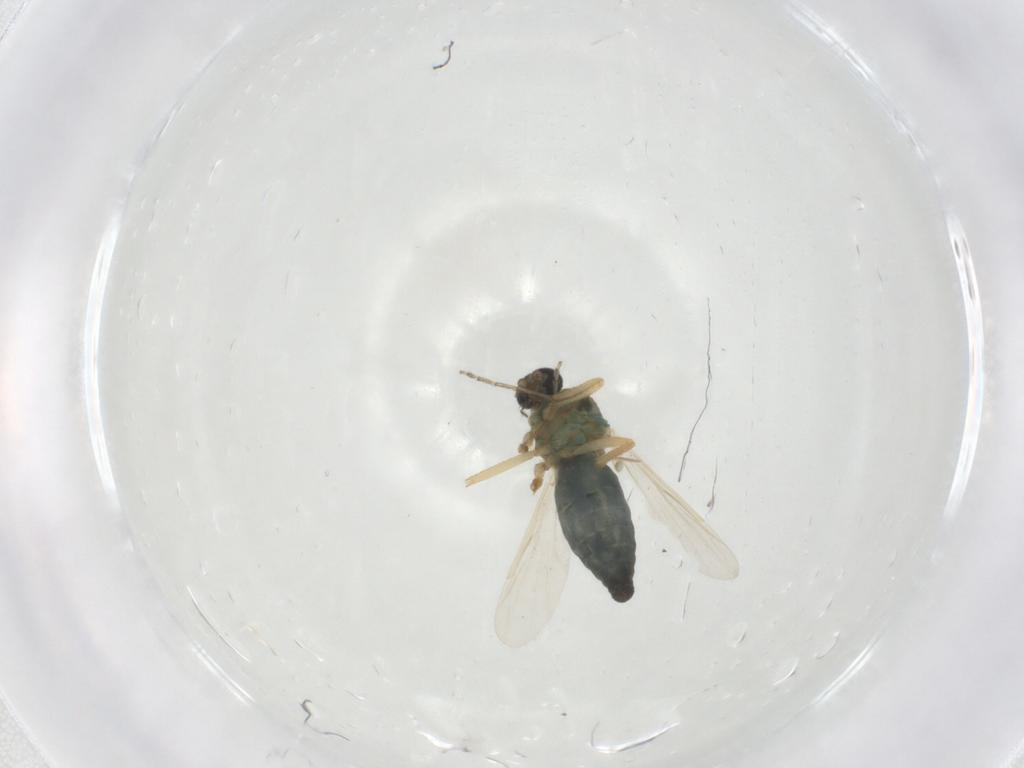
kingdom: Animalia
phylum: Arthropoda
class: Insecta
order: Diptera
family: Ceratopogonidae
